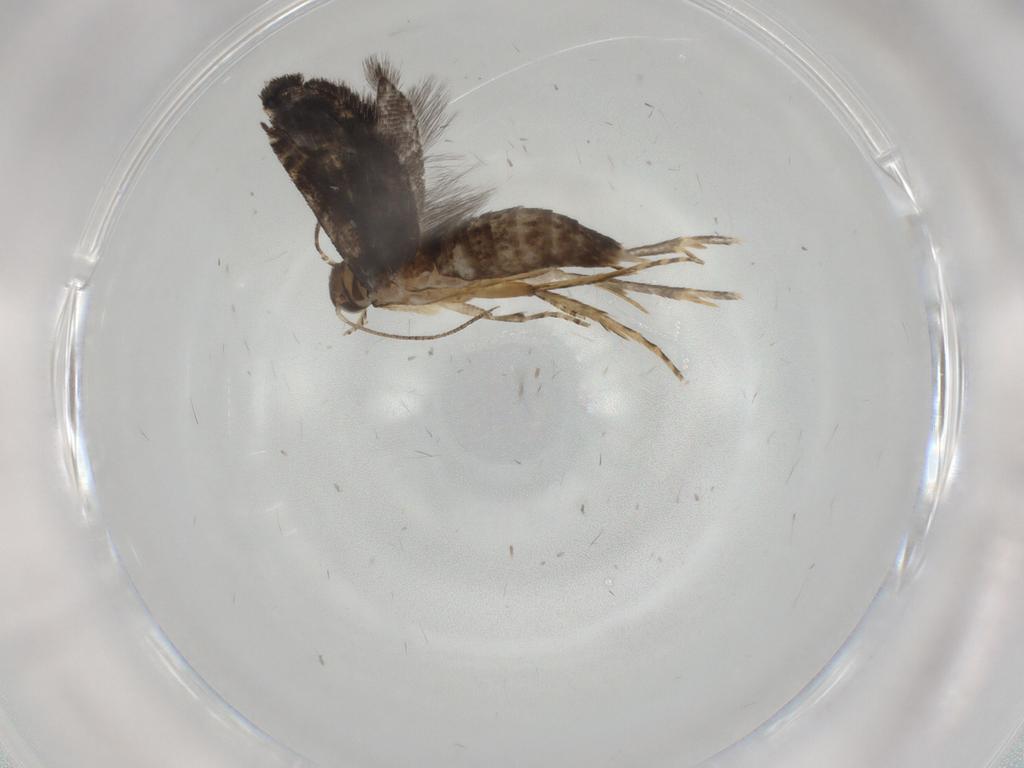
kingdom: Animalia
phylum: Arthropoda
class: Insecta
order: Lepidoptera
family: Glyphipterigidae
